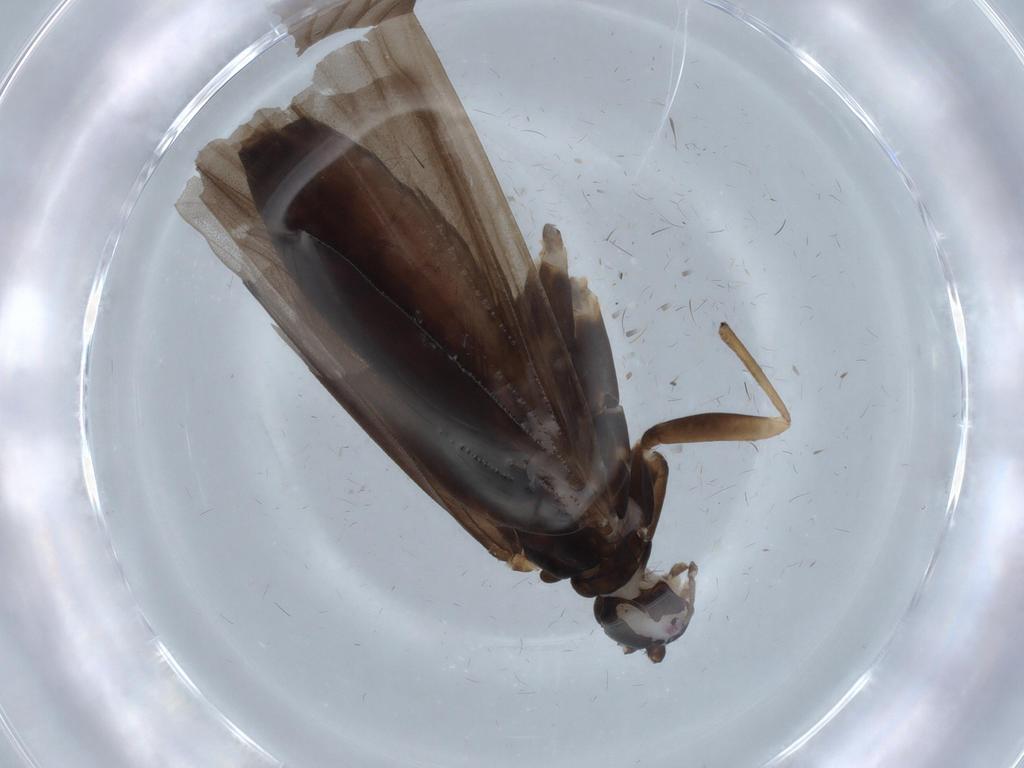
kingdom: Animalia
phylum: Arthropoda
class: Insecta
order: Trichoptera
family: Hydropsychidae
